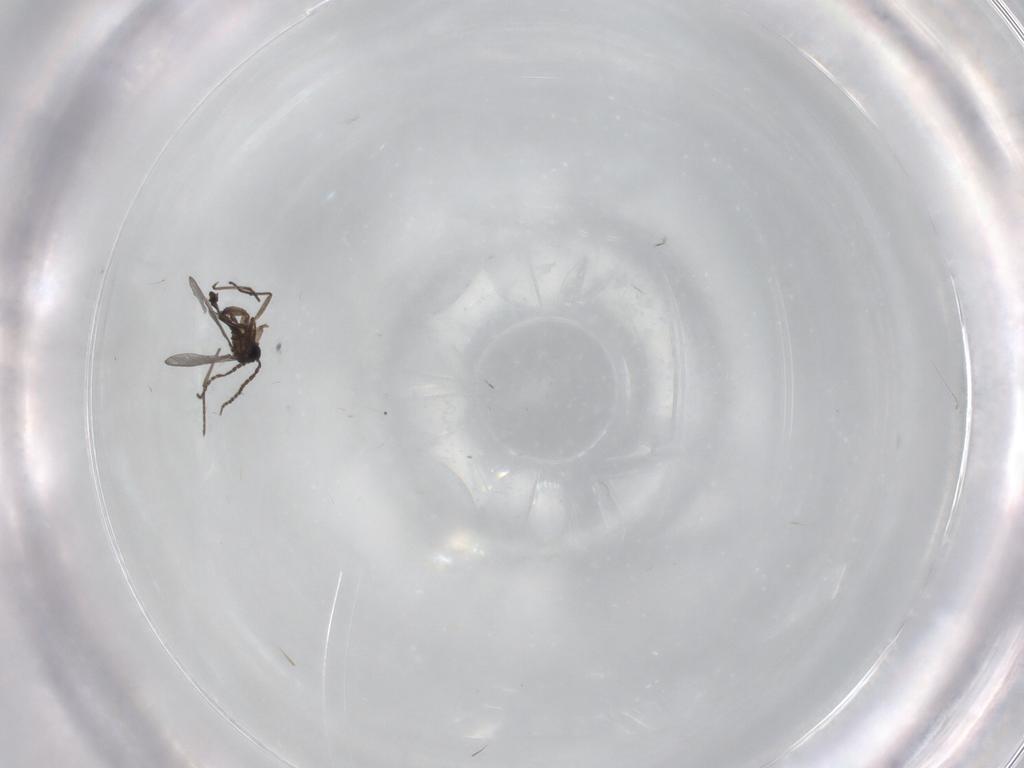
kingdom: Animalia
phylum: Arthropoda
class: Insecta
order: Diptera
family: Sciaridae
